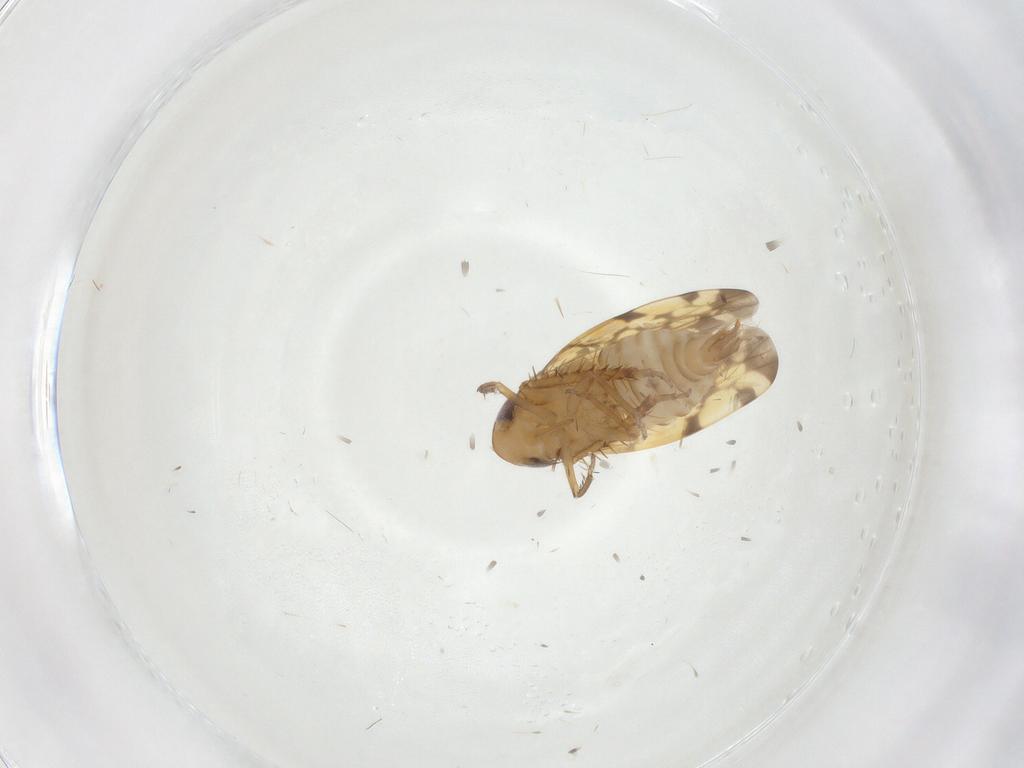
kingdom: Animalia
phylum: Arthropoda
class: Insecta
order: Hemiptera
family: Cicadellidae
